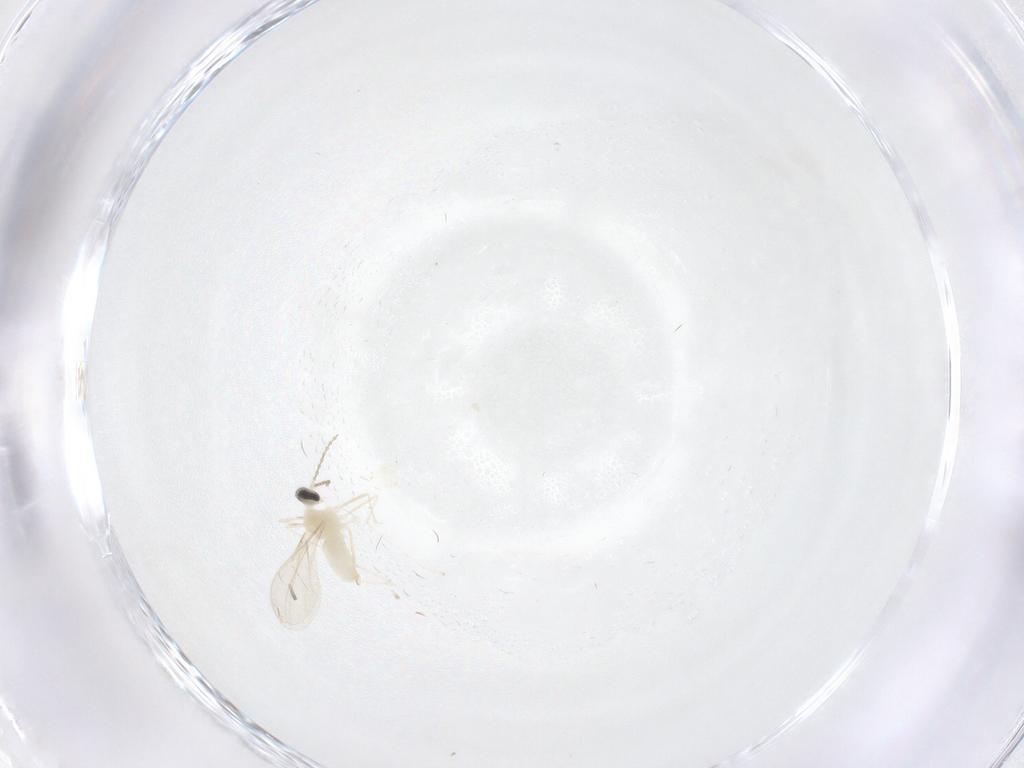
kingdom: Animalia
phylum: Arthropoda
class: Insecta
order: Diptera
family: Cecidomyiidae
